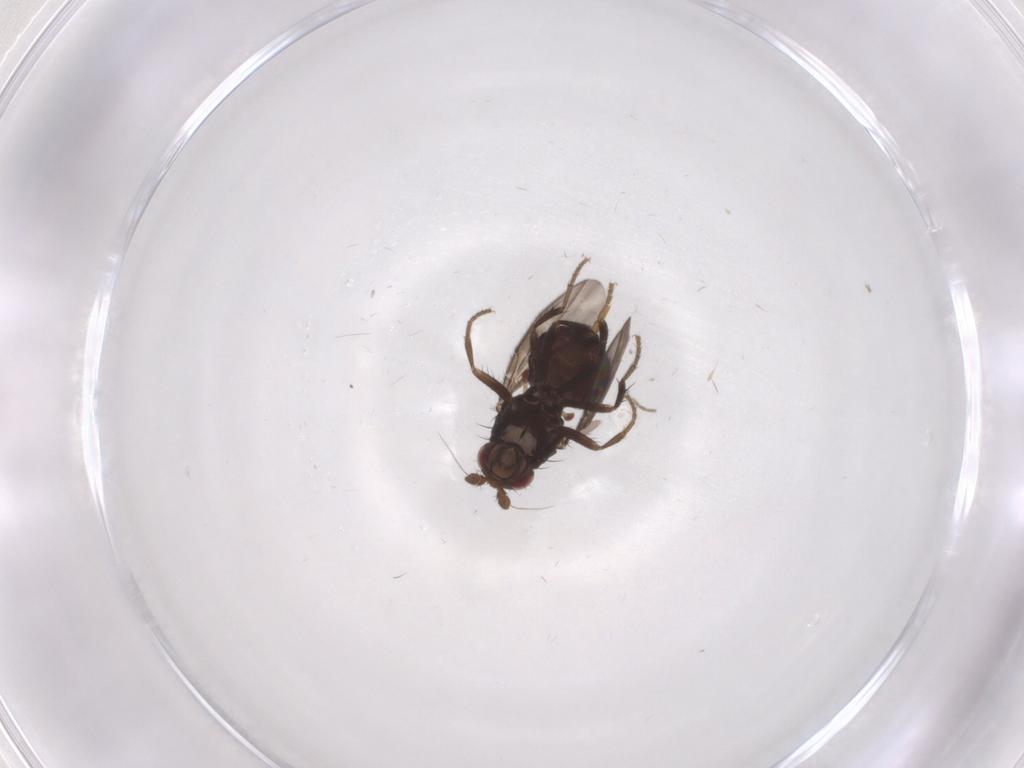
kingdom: Animalia
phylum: Arthropoda
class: Insecta
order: Diptera
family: Sphaeroceridae
